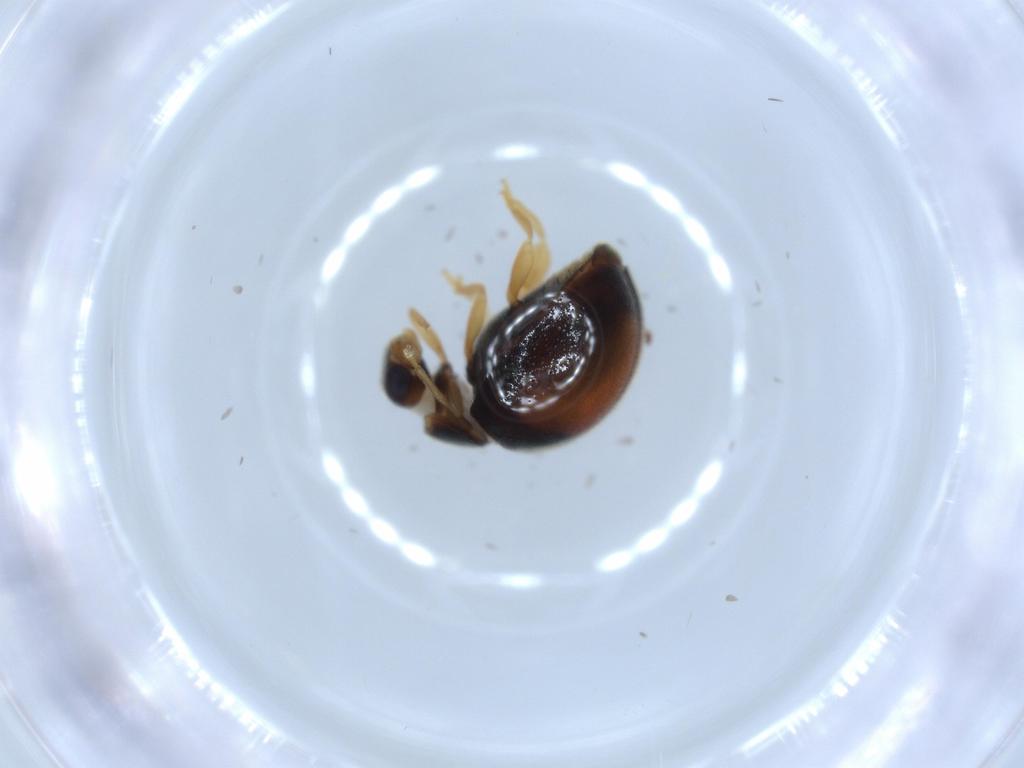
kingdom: Animalia
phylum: Arthropoda
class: Insecta
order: Coleoptera
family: Coccinellidae
